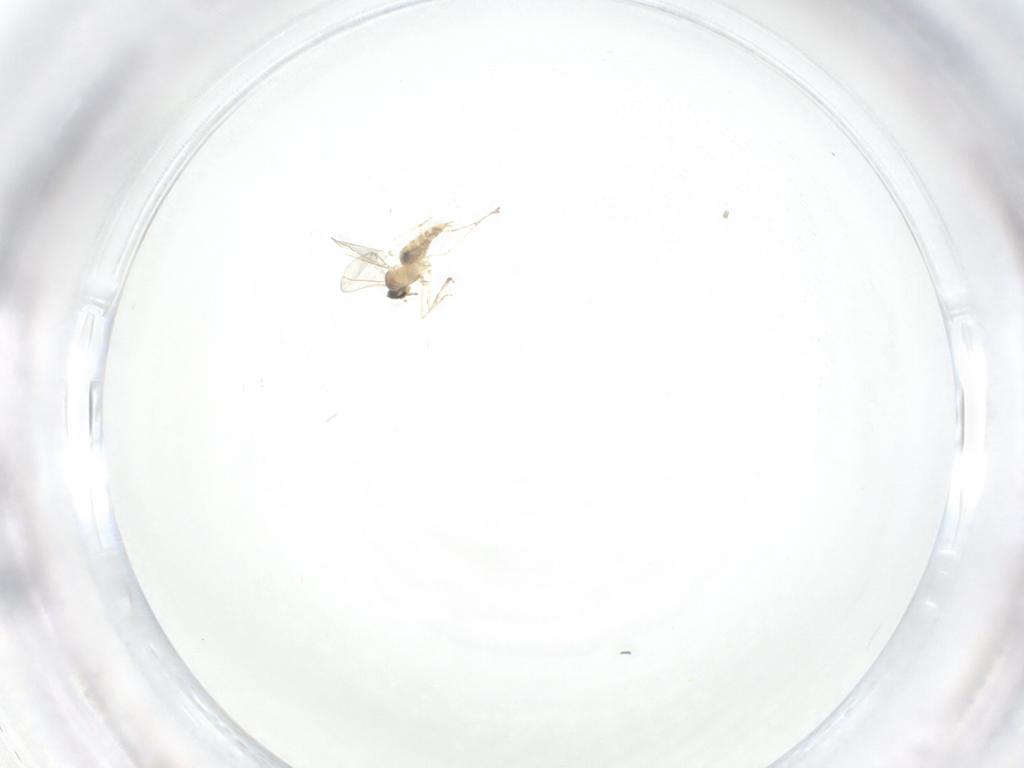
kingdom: Animalia
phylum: Arthropoda
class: Insecta
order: Diptera
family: Cecidomyiidae
